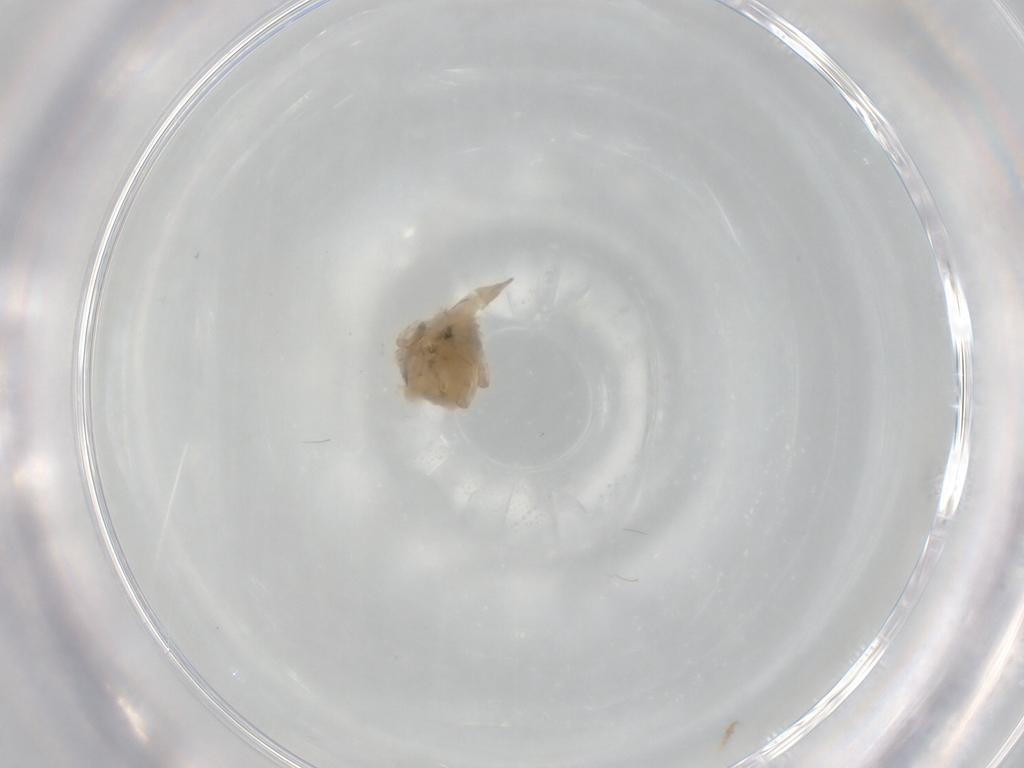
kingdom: Animalia
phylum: Arthropoda
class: Arachnida
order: Trombidiformes
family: Bdellidae
